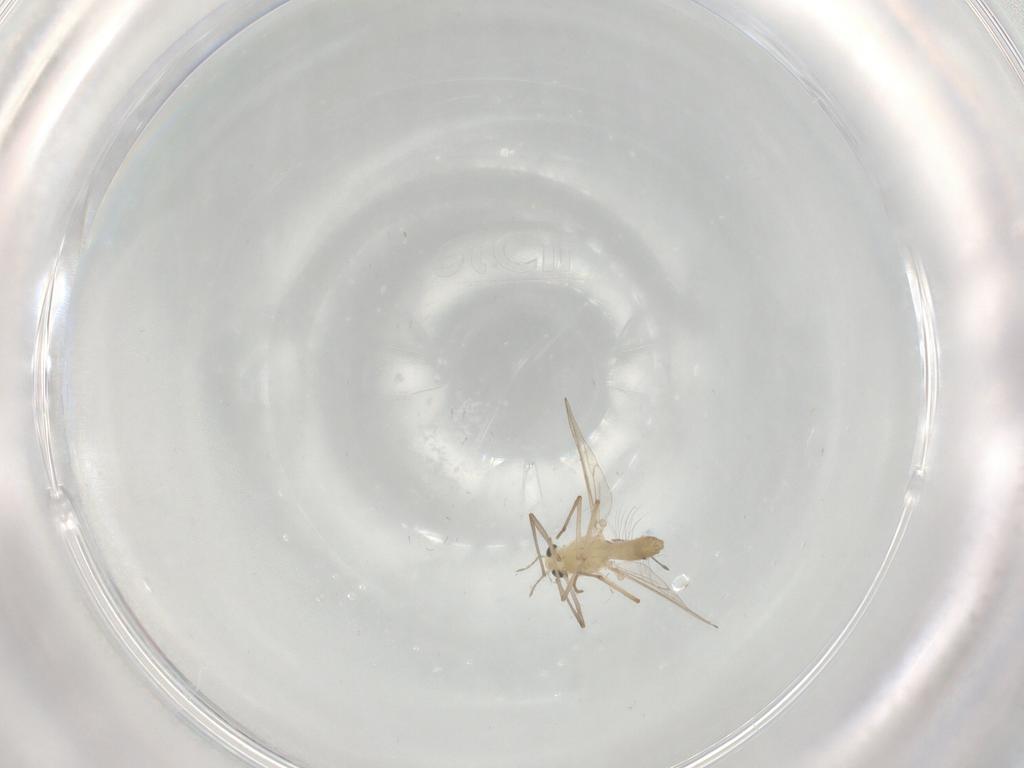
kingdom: Animalia
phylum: Arthropoda
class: Insecta
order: Diptera
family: Chironomidae
